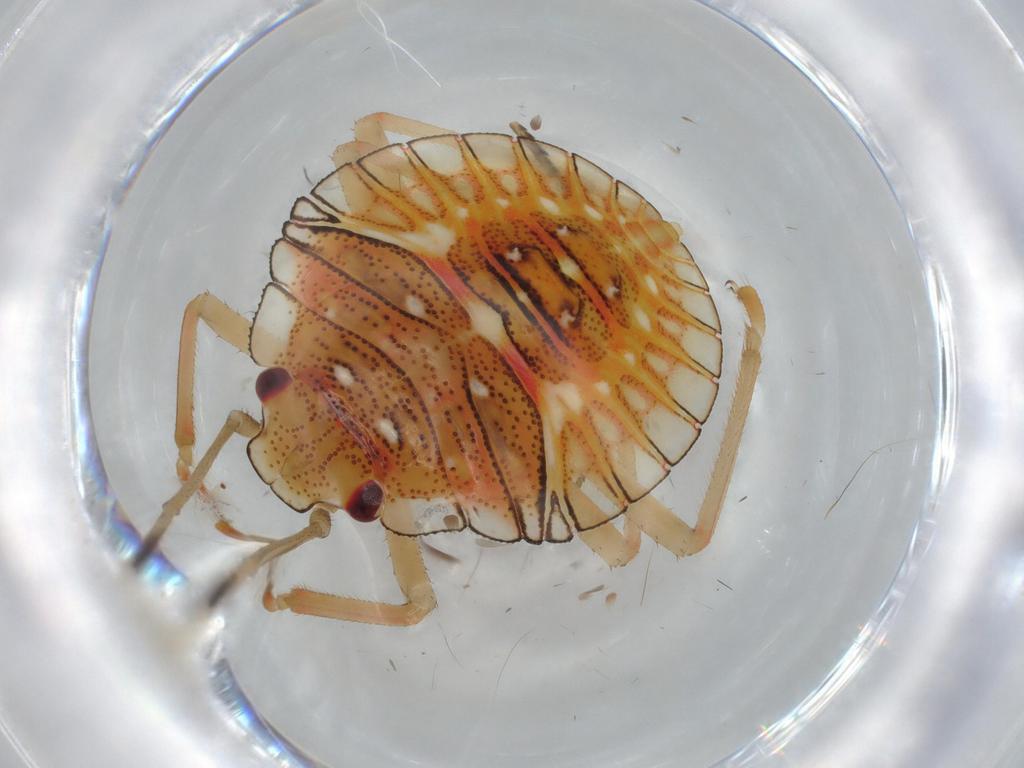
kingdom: Animalia
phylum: Arthropoda
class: Insecta
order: Hemiptera
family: Pentatomidae
